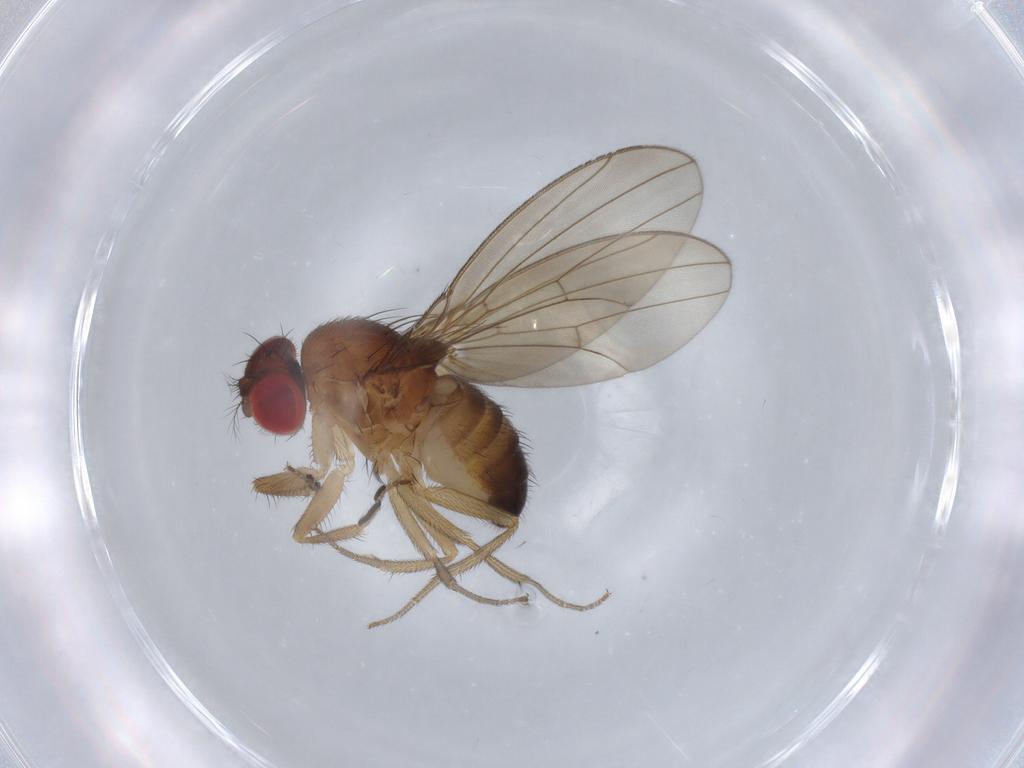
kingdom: Animalia
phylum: Arthropoda
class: Insecta
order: Diptera
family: Drosophilidae
